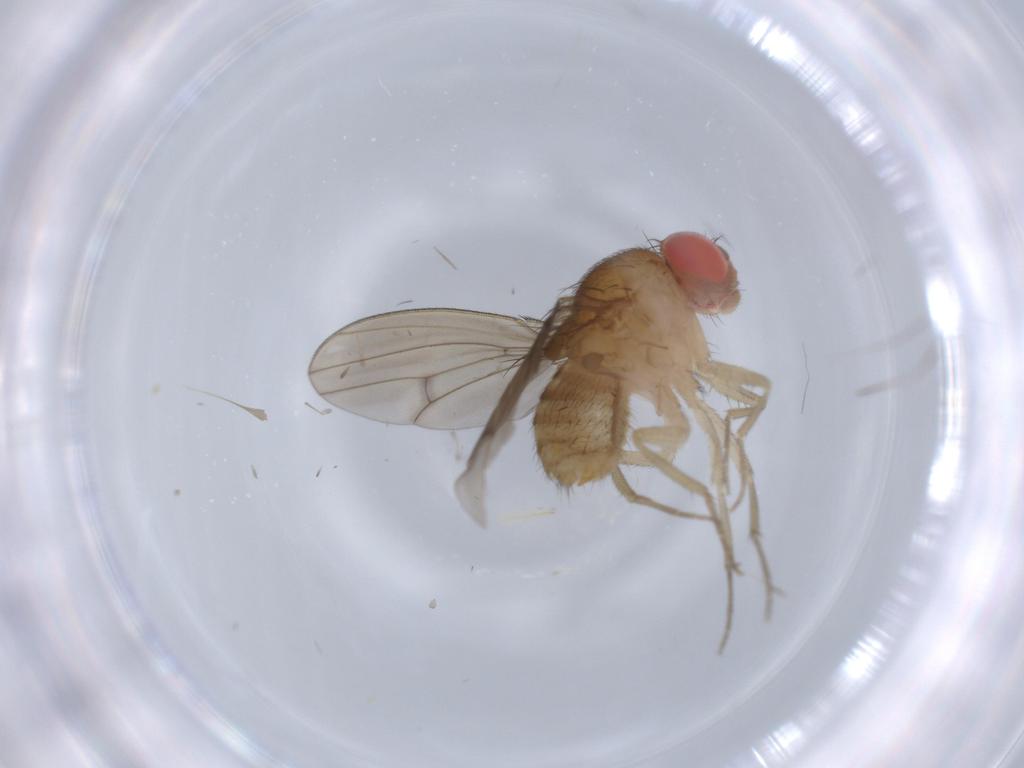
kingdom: Animalia
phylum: Arthropoda
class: Insecta
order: Diptera
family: Drosophilidae
